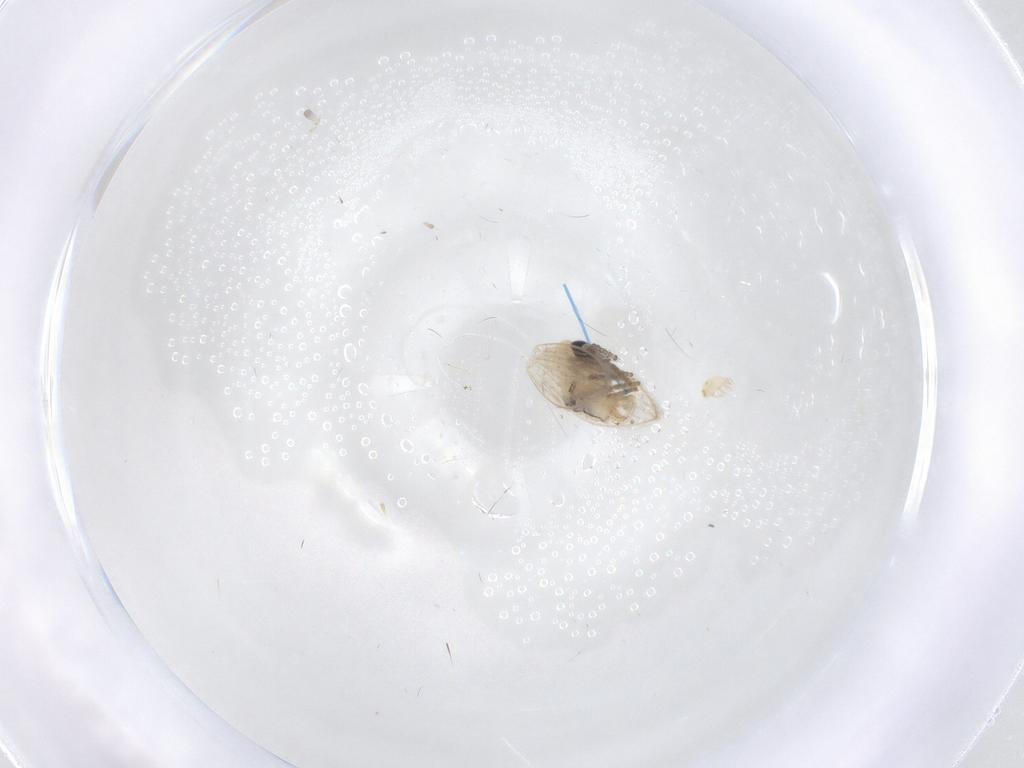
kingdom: Animalia
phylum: Arthropoda
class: Insecta
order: Diptera
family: Psychodidae
